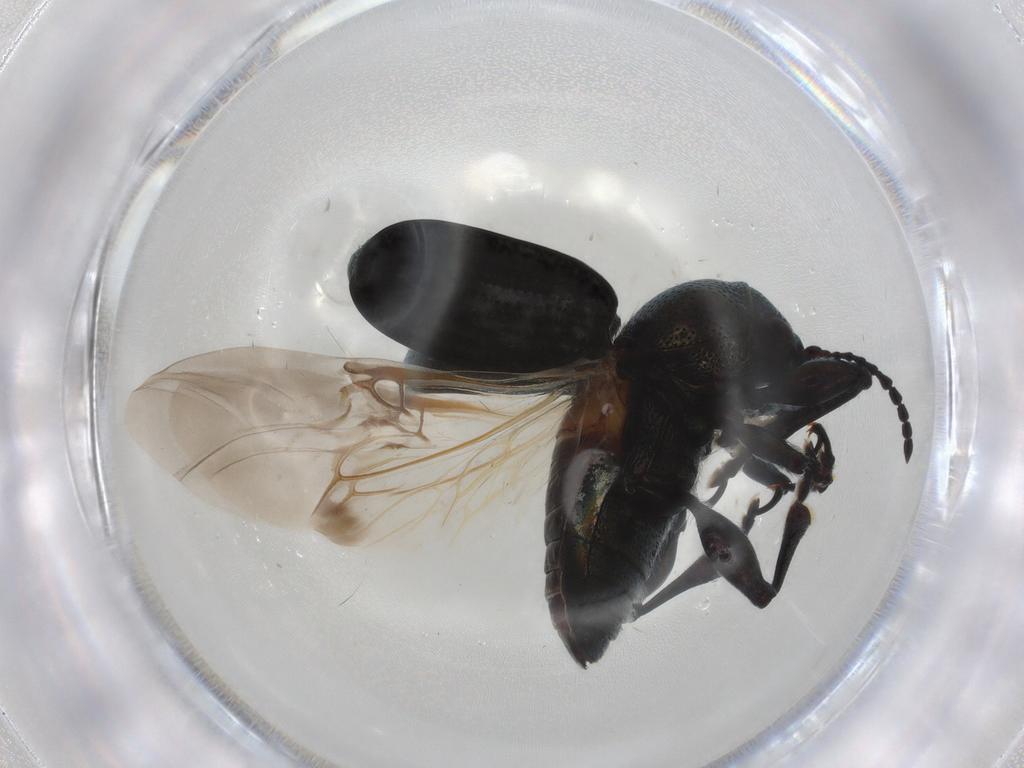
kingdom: Animalia
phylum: Arthropoda
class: Insecta
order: Coleoptera
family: Chrysomelidae
